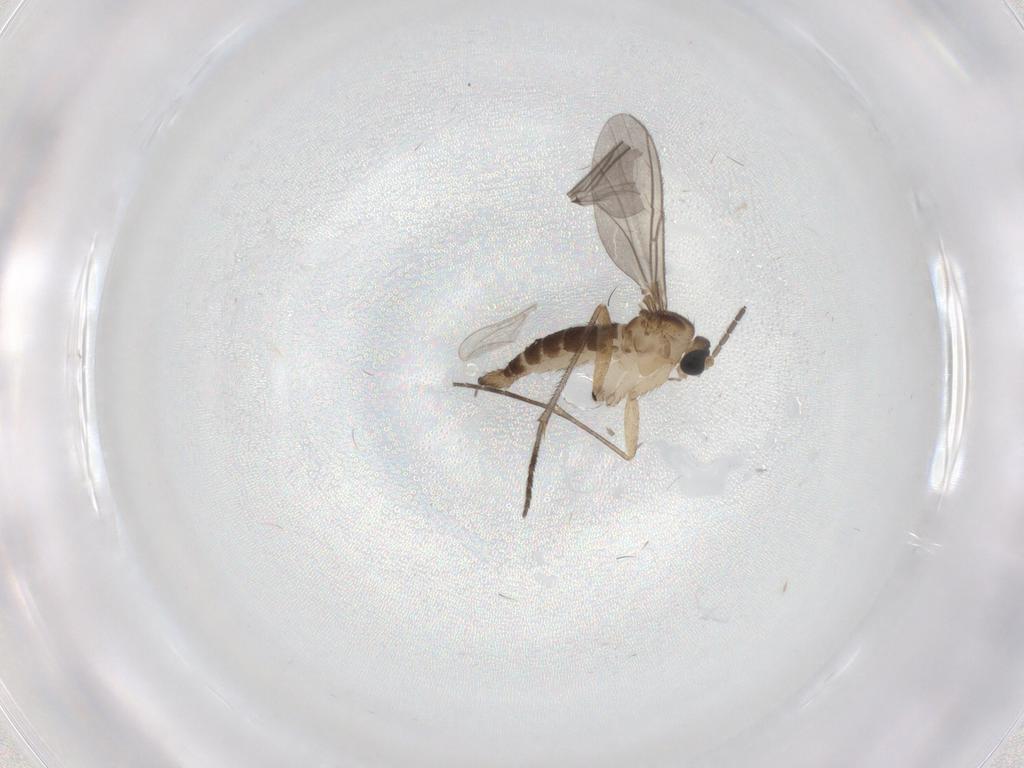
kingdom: Animalia
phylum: Arthropoda
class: Insecta
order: Diptera
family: Sciaridae
